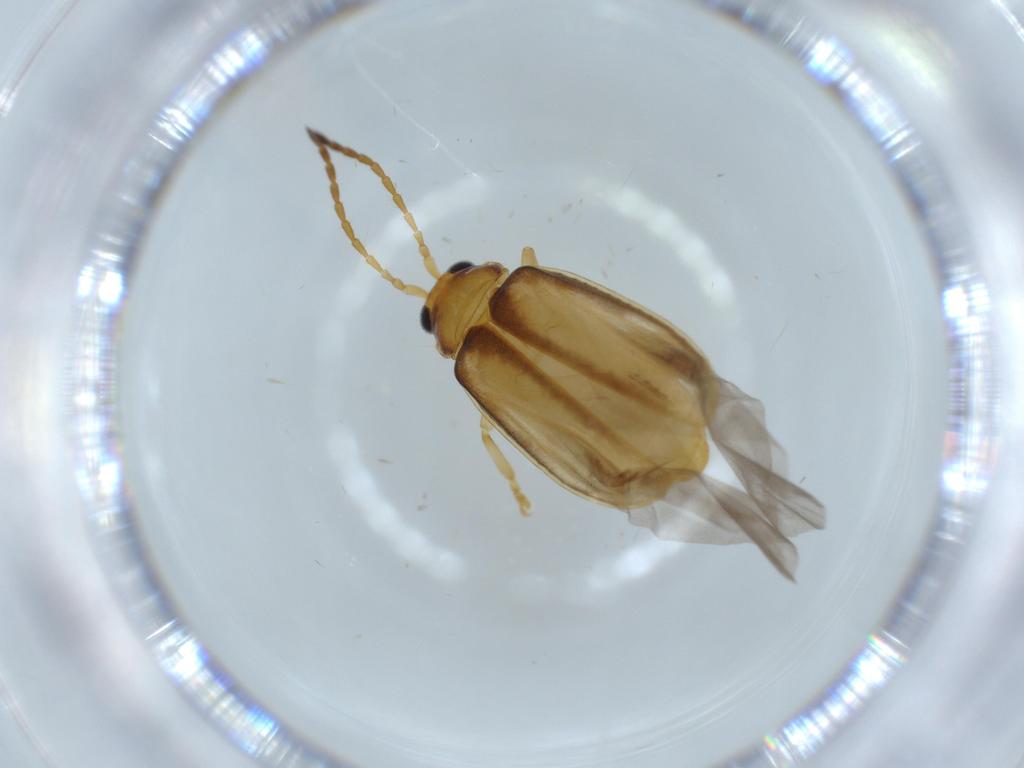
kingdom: Animalia
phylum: Arthropoda
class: Insecta
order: Coleoptera
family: Chrysomelidae
